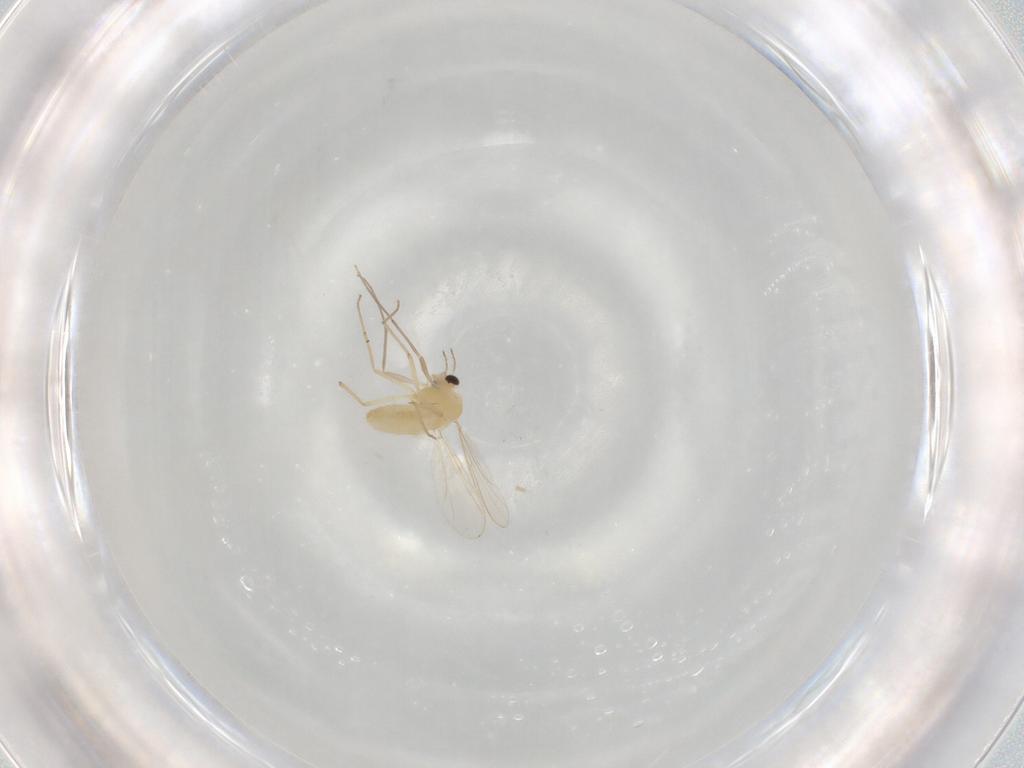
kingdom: Animalia
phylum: Arthropoda
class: Insecta
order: Diptera
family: Chironomidae
